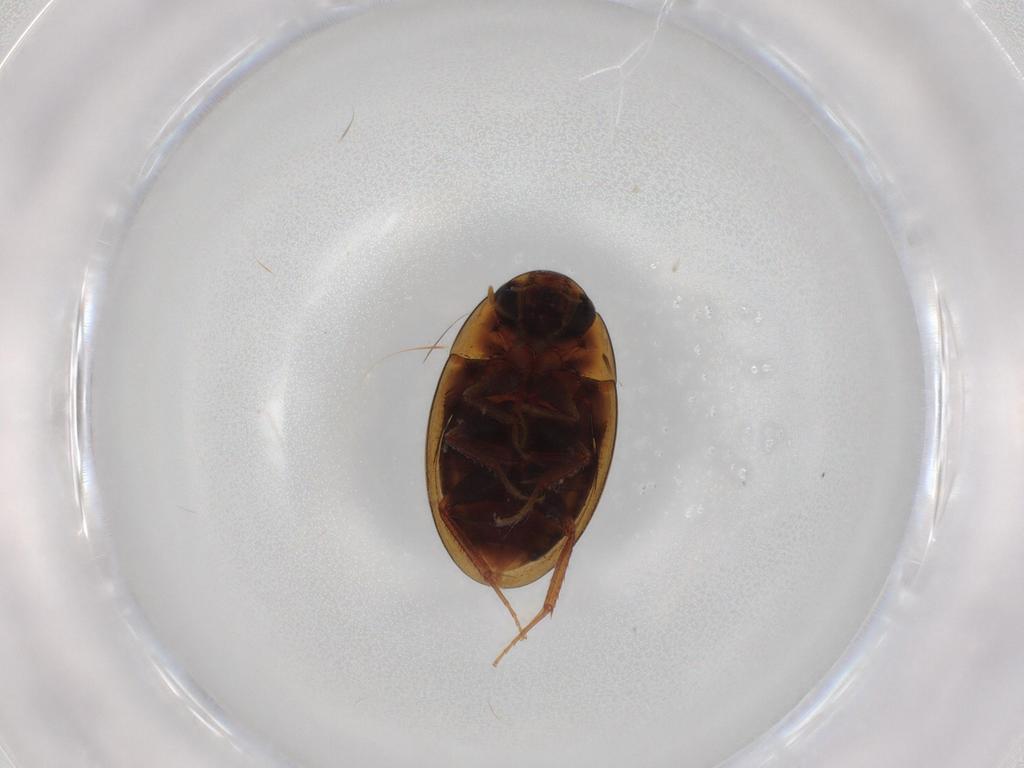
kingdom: Animalia
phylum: Arthropoda
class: Insecta
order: Coleoptera
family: Hydrophilidae
